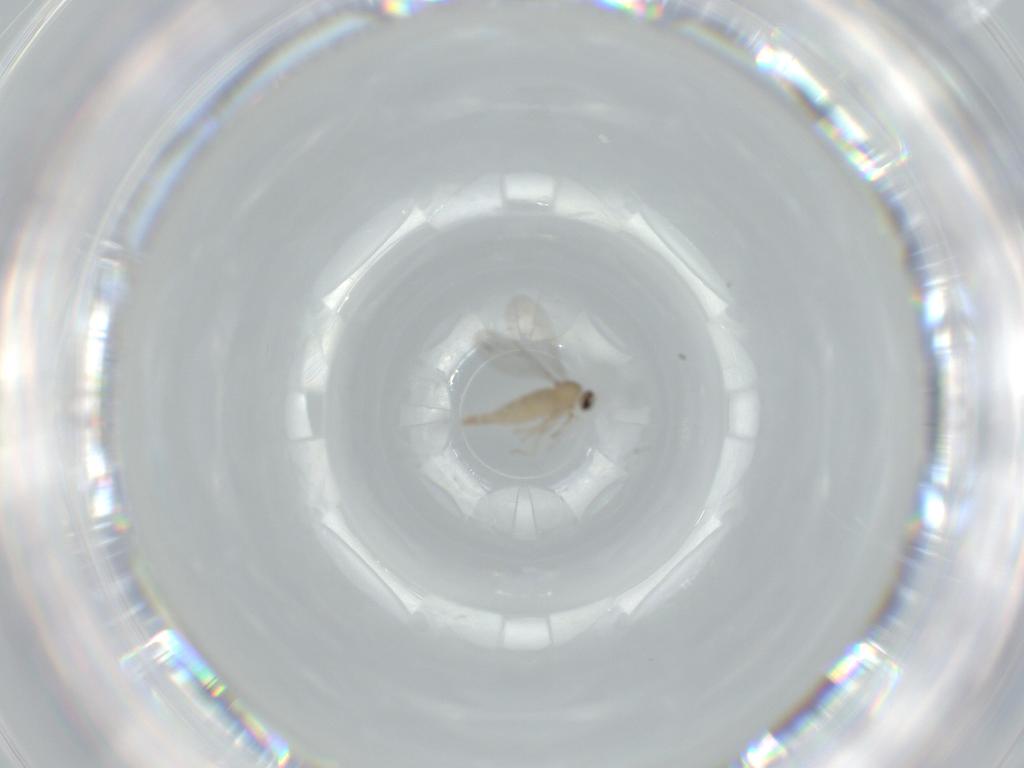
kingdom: Animalia
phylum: Arthropoda
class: Insecta
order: Diptera
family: Cecidomyiidae
